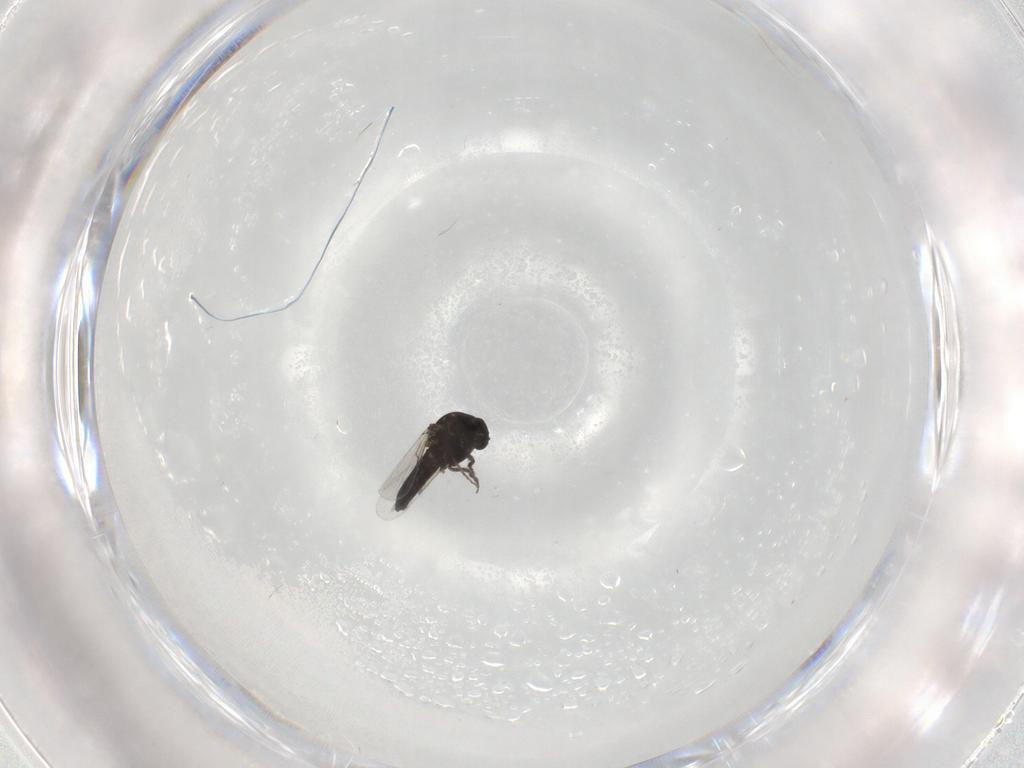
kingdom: Animalia
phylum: Arthropoda
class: Insecta
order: Diptera
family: Ceratopogonidae
